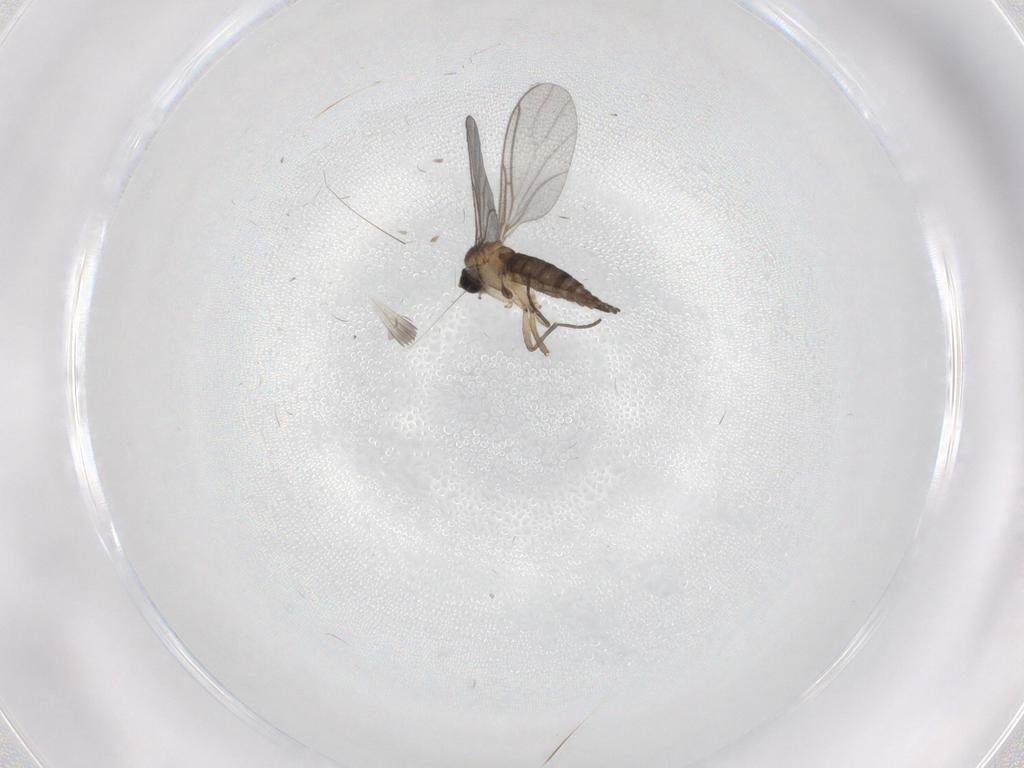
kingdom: Animalia
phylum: Arthropoda
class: Insecta
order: Diptera
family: Sciaridae
